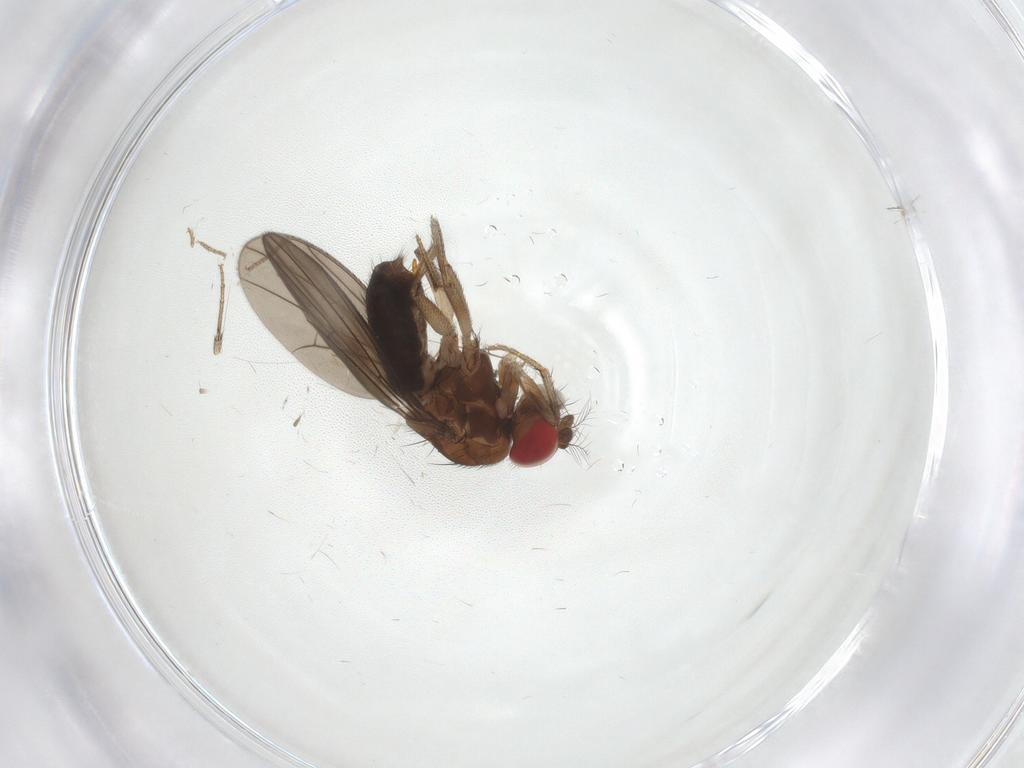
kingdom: Animalia
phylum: Arthropoda
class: Insecta
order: Diptera
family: Drosophilidae
